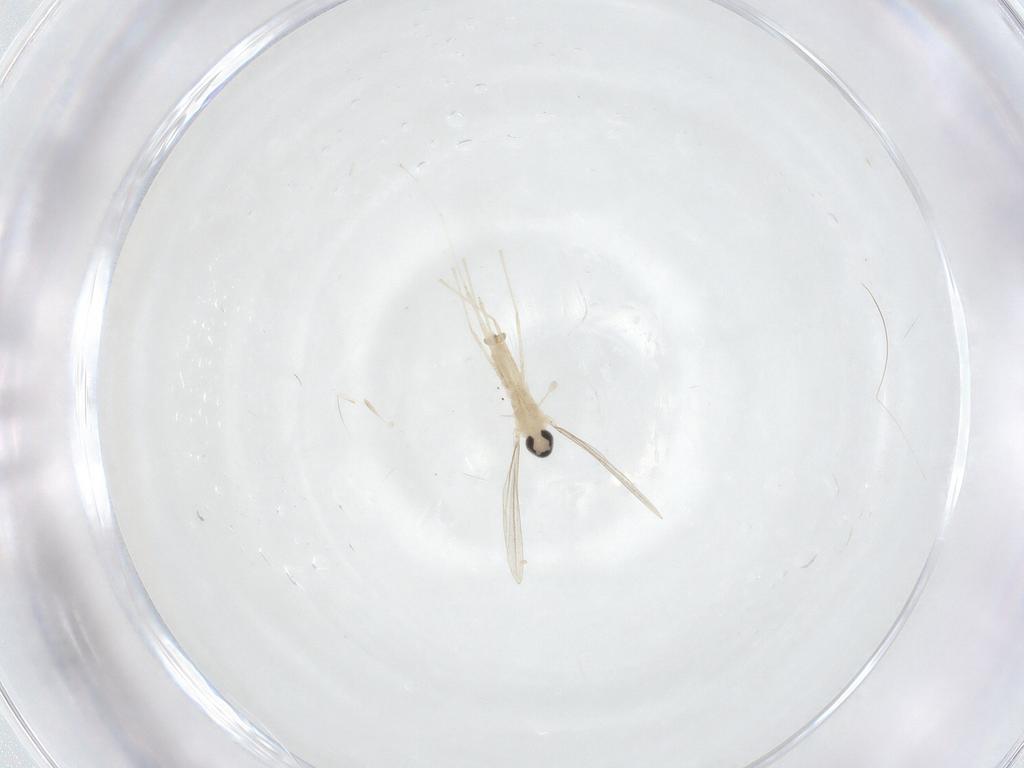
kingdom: Animalia
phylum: Arthropoda
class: Insecta
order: Diptera
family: Cecidomyiidae
